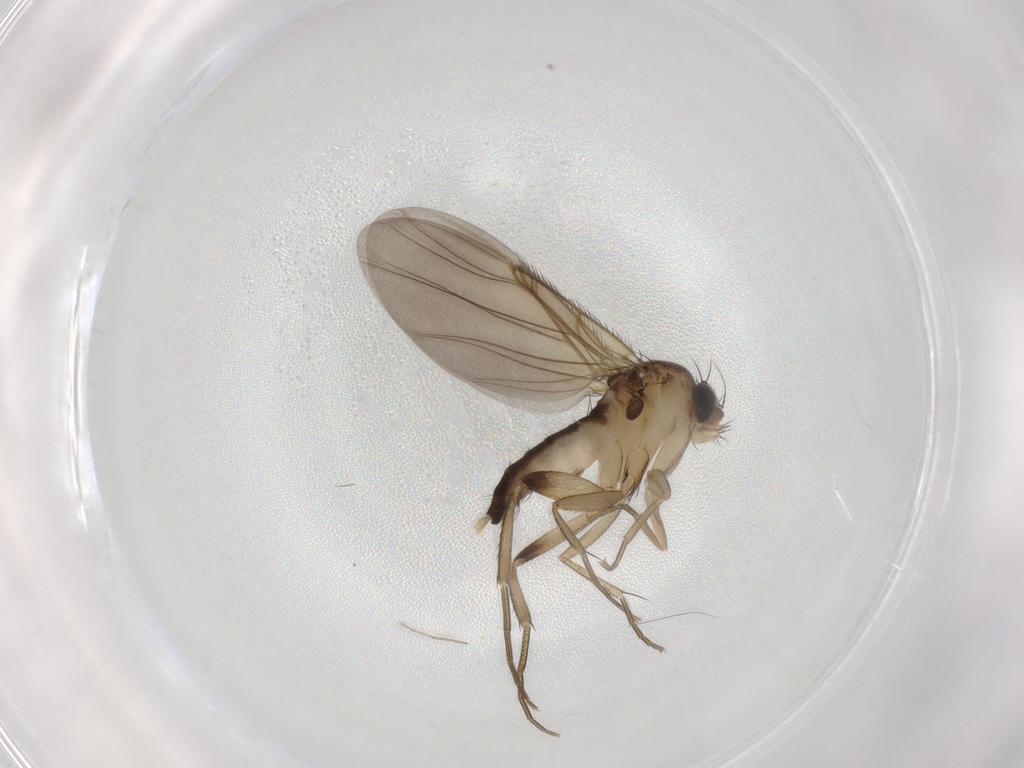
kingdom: Animalia
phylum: Arthropoda
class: Insecta
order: Diptera
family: Phoridae
